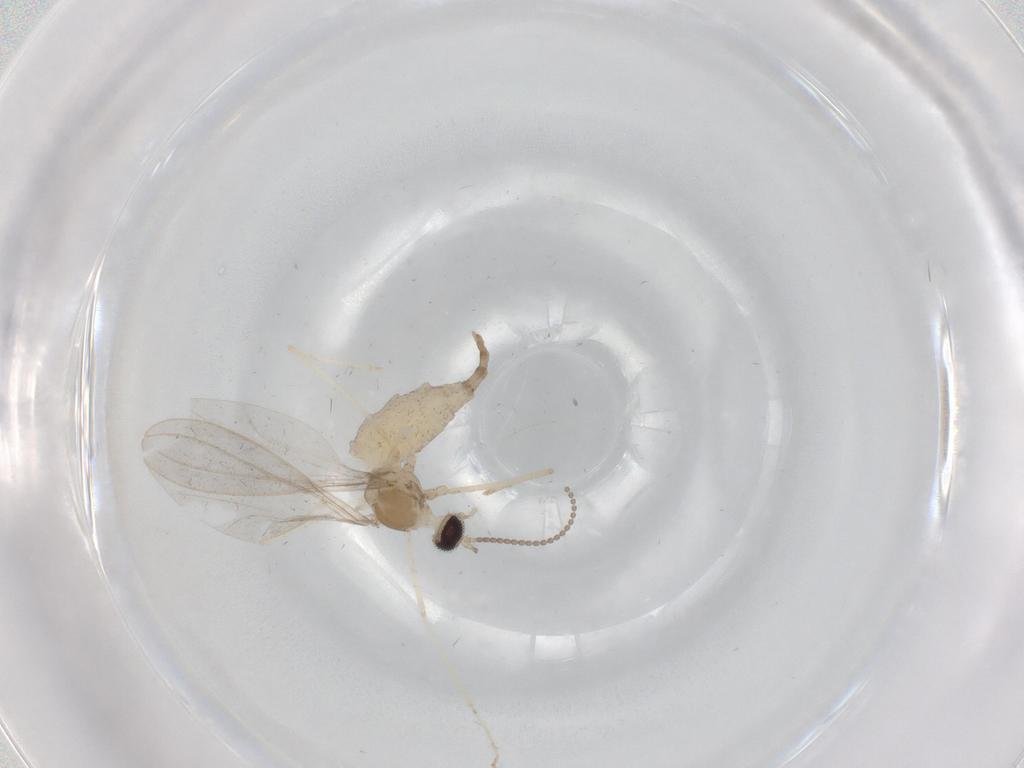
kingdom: Animalia
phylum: Arthropoda
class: Insecta
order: Diptera
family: Cecidomyiidae
